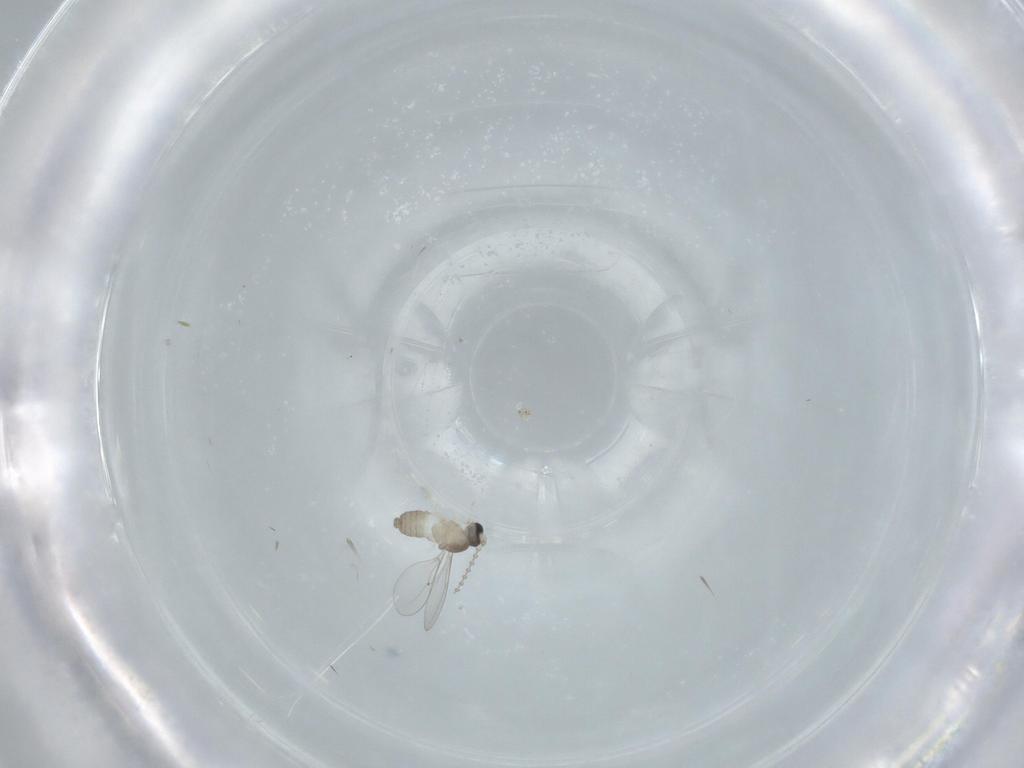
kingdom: Animalia
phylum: Arthropoda
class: Insecta
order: Diptera
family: Cecidomyiidae
